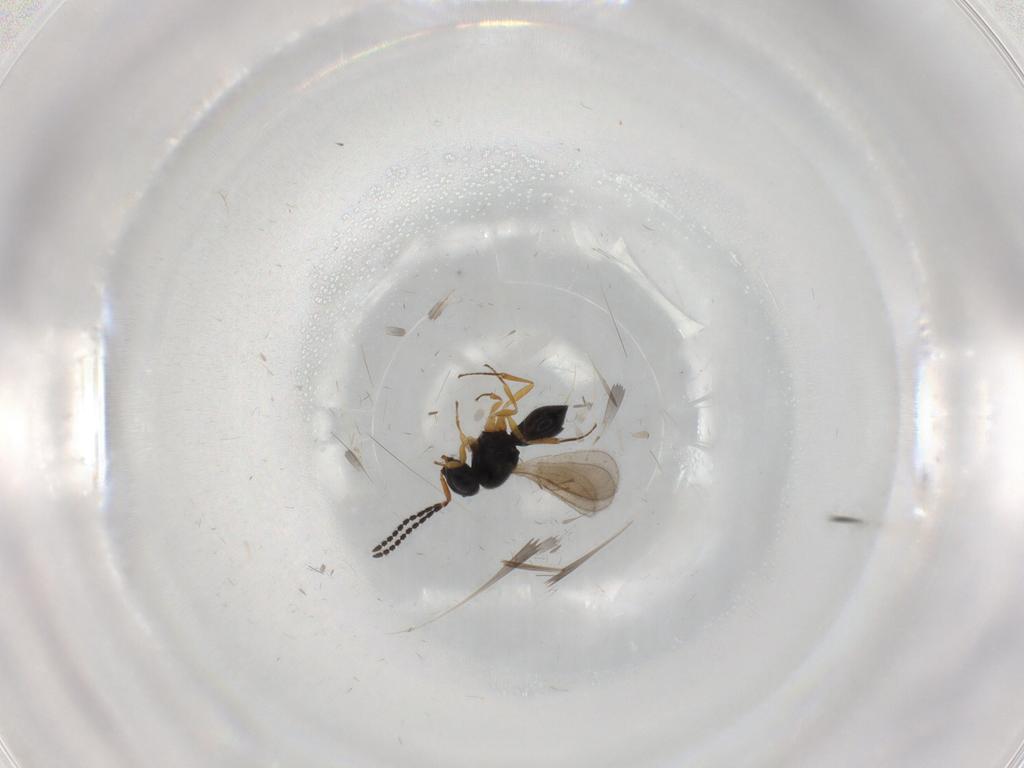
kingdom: Animalia
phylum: Arthropoda
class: Insecta
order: Hymenoptera
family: Scelionidae
